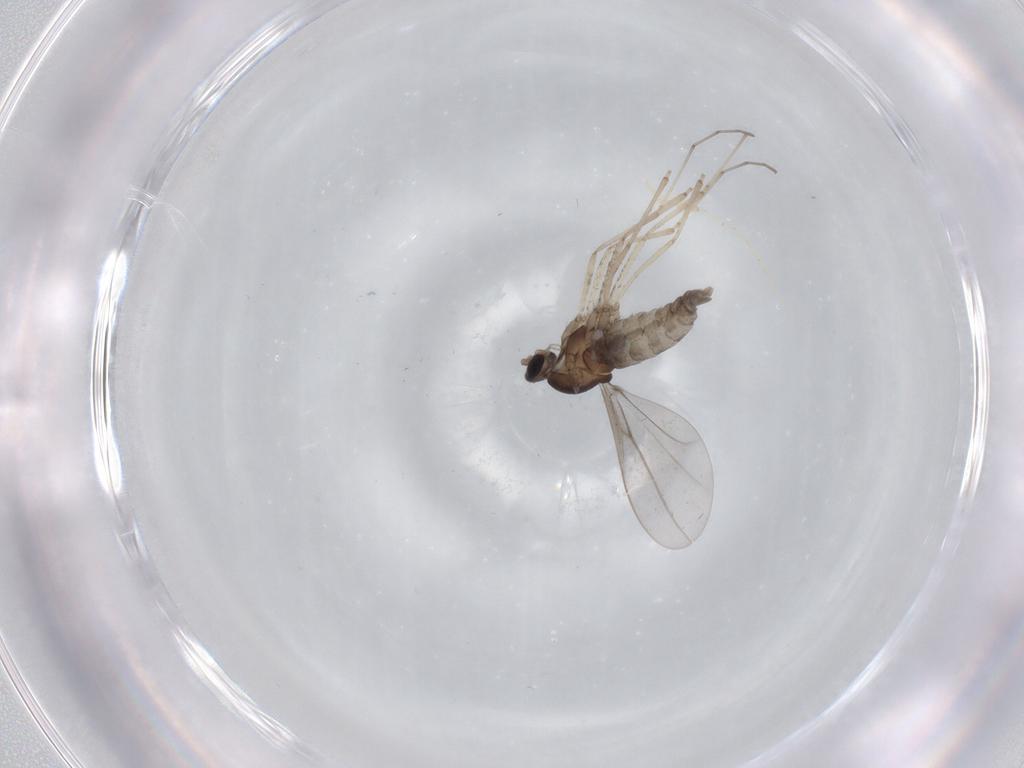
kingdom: Animalia
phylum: Arthropoda
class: Insecta
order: Diptera
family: Cecidomyiidae
